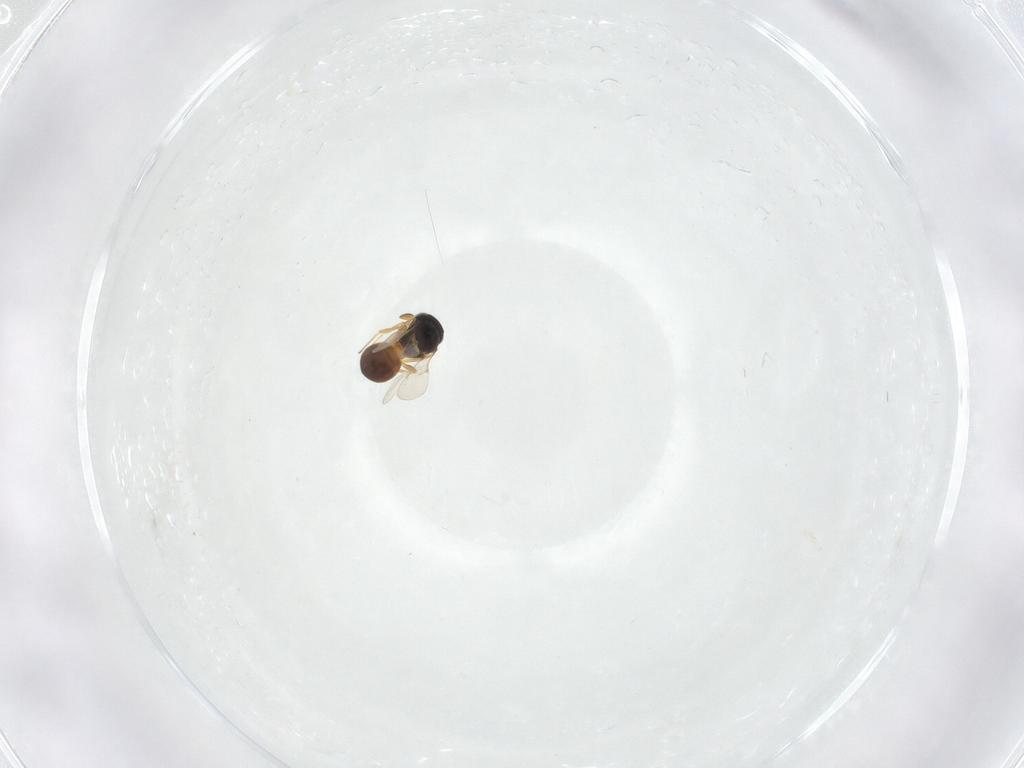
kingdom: Animalia
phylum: Arthropoda
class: Insecta
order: Hymenoptera
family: Scelionidae
